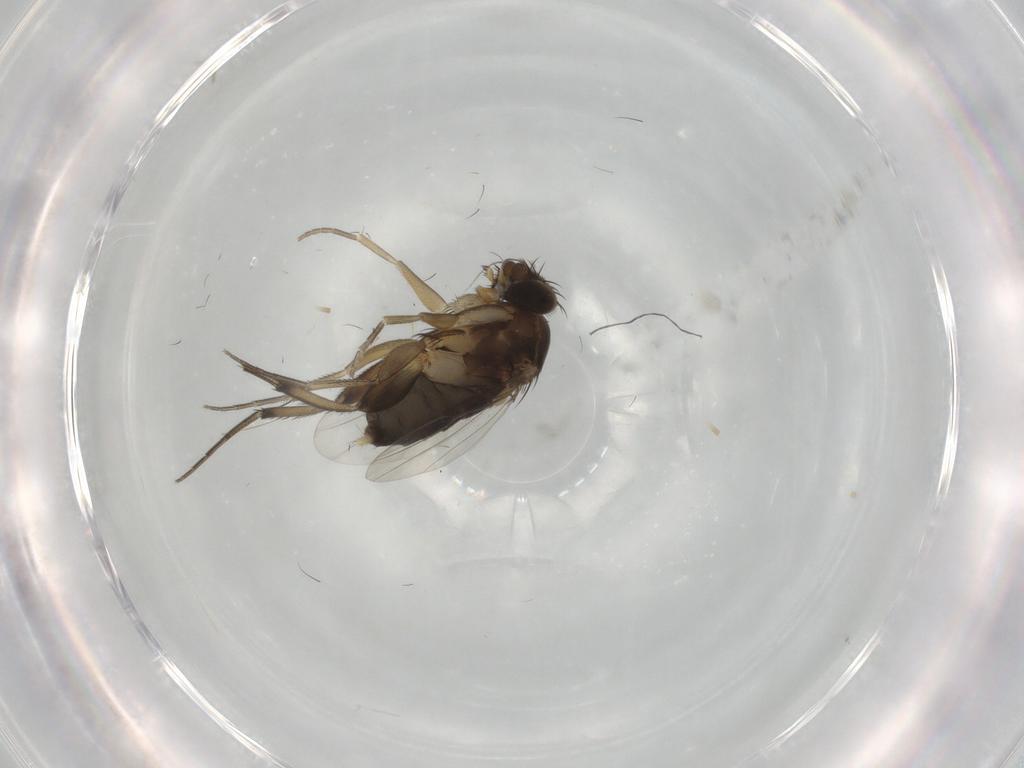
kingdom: Animalia
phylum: Arthropoda
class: Insecta
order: Diptera
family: Phoridae
